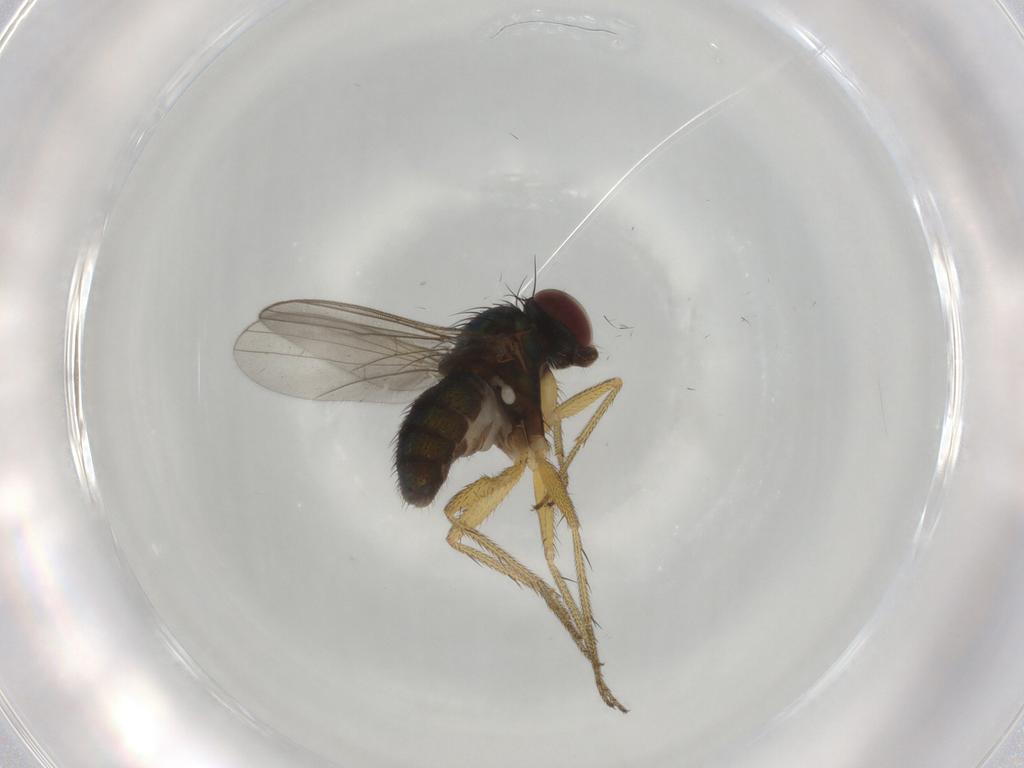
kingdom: Animalia
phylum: Arthropoda
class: Insecta
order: Diptera
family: Dolichopodidae
